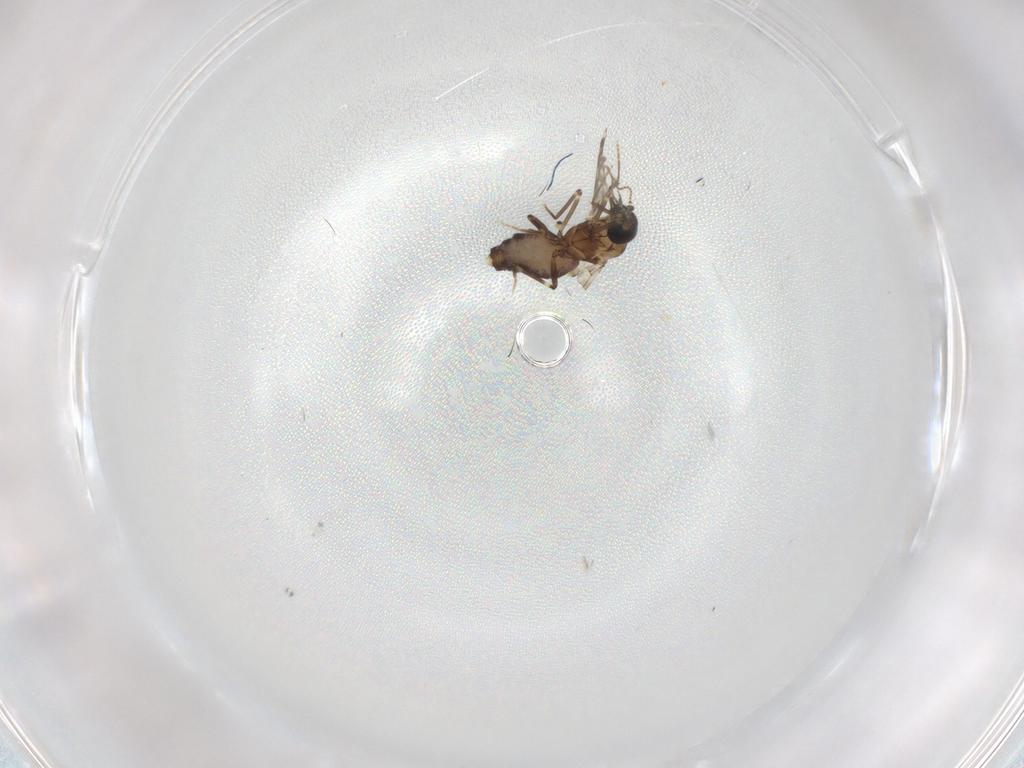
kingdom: Animalia
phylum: Arthropoda
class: Insecta
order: Diptera
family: Ceratopogonidae
